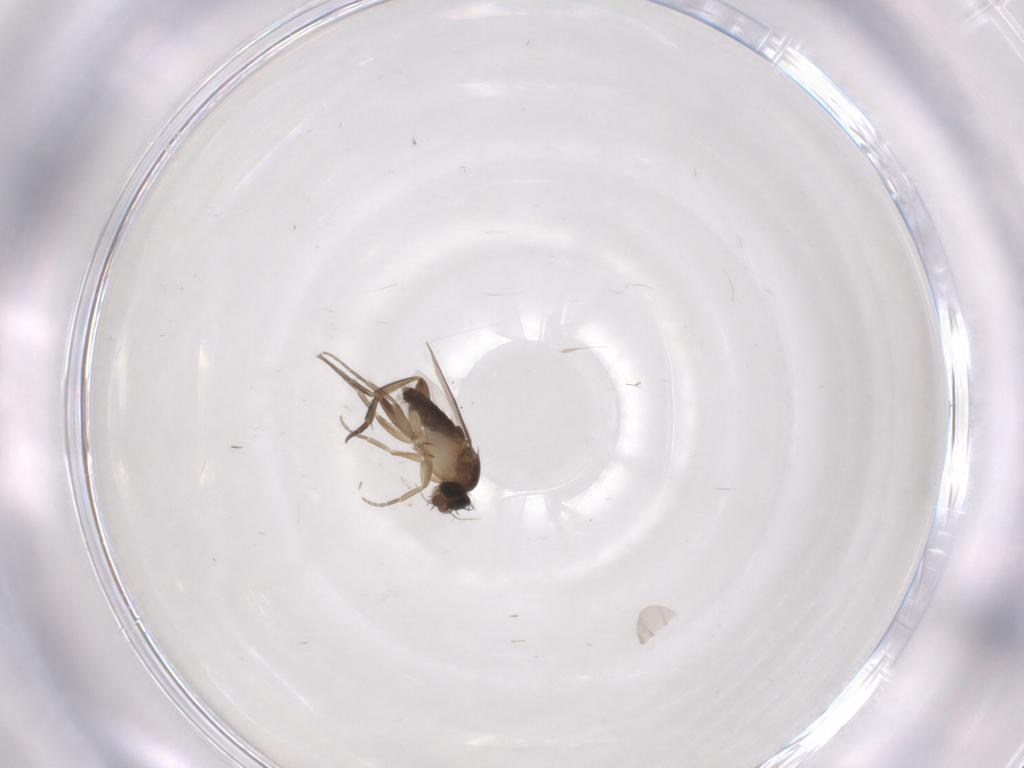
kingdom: Animalia
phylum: Arthropoda
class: Insecta
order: Diptera
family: Phoridae
